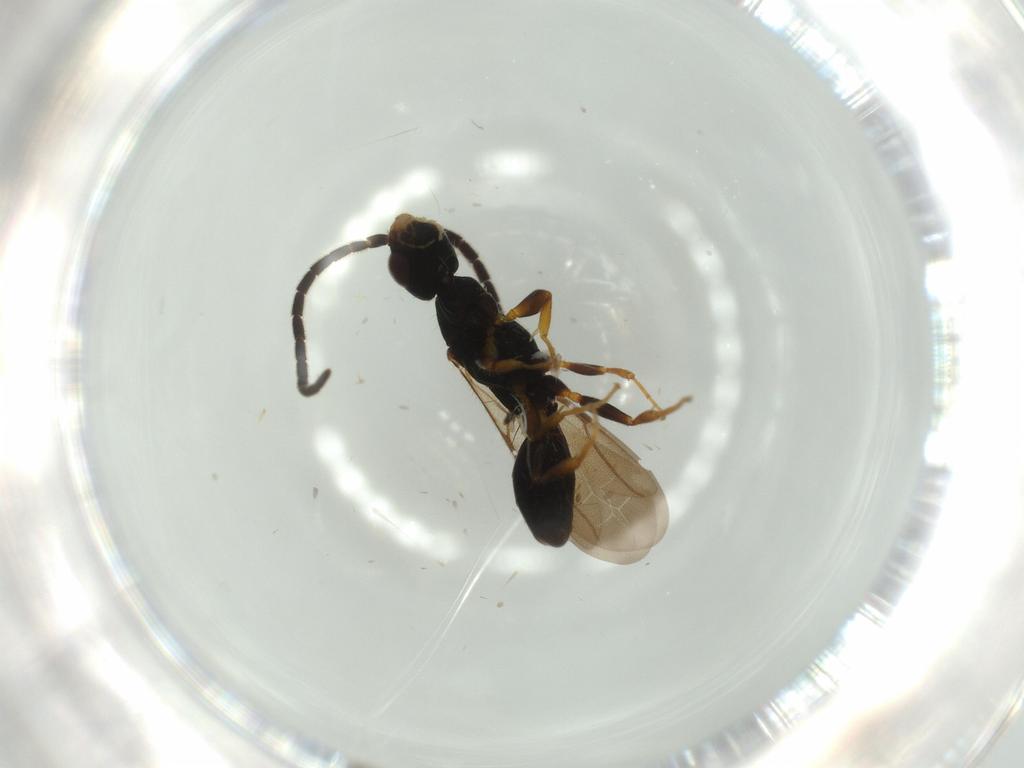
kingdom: Animalia
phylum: Arthropoda
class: Insecta
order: Hymenoptera
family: Bethylidae
